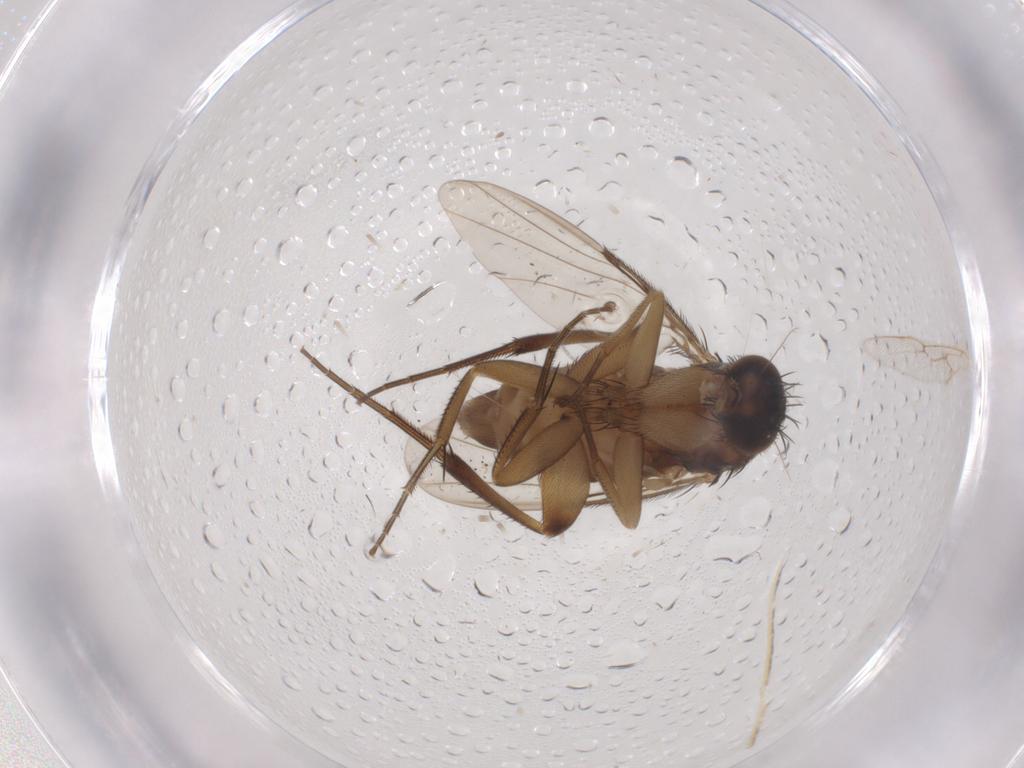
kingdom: Animalia
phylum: Arthropoda
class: Insecta
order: Diptera
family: Phoridae
